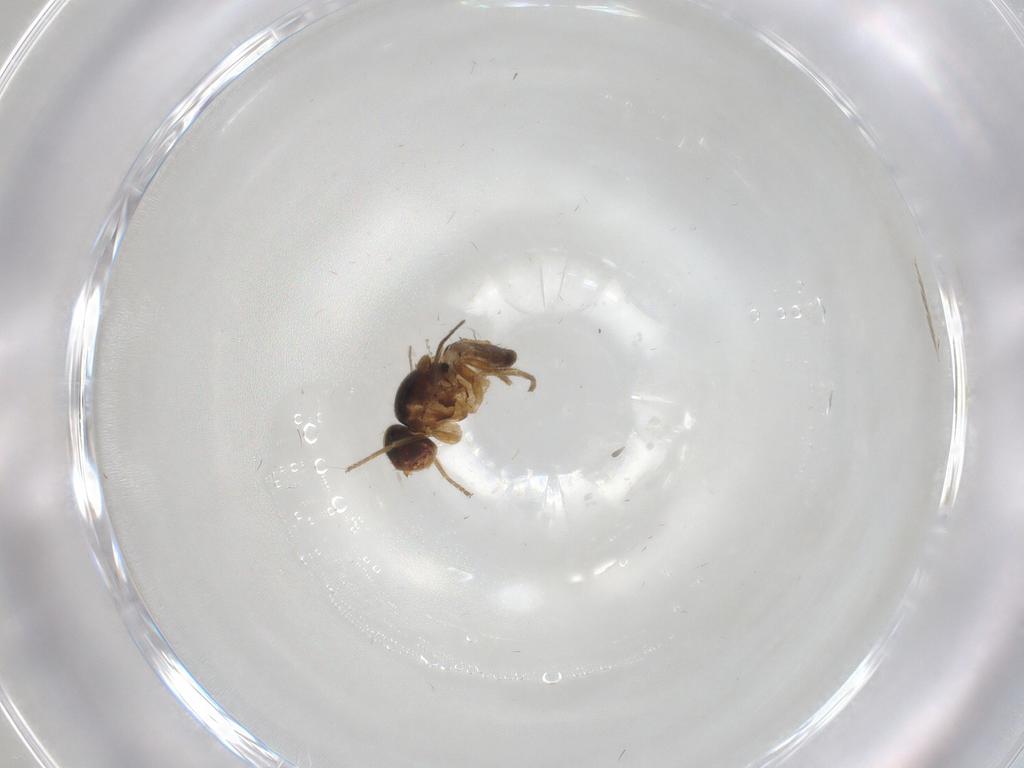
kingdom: Animalia
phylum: Arthropoda
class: Insecta
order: Diptera
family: Chloropidae
